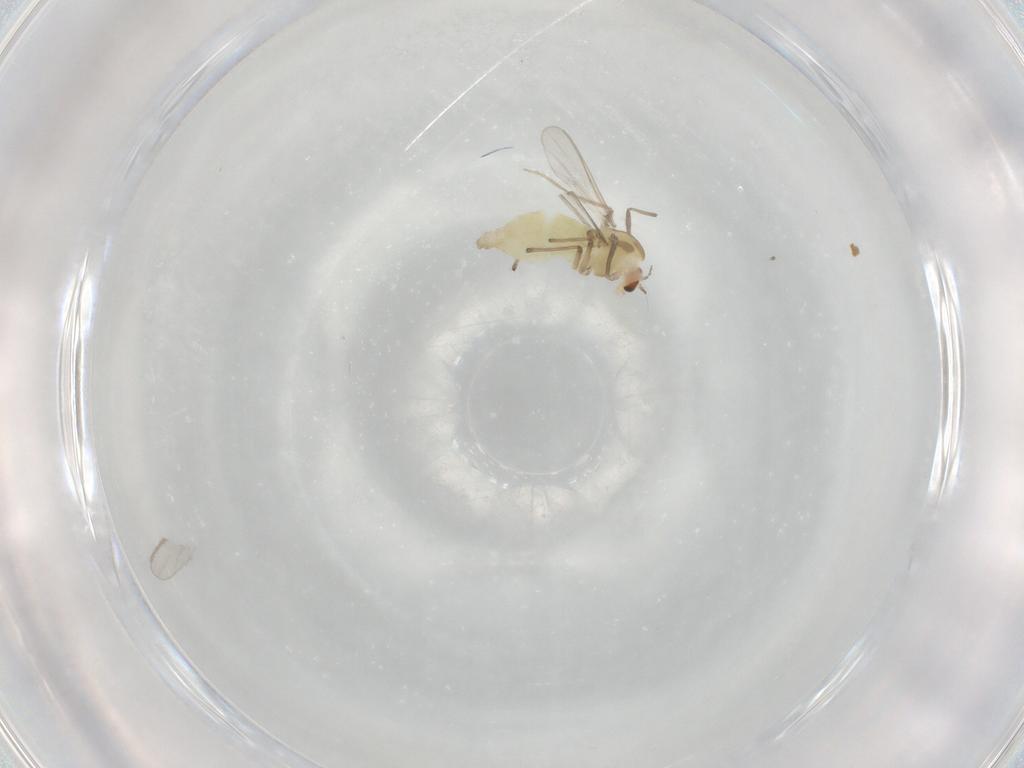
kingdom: Animalia
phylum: Arthropoda
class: Insecta
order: Diptera
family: Chironomidae
